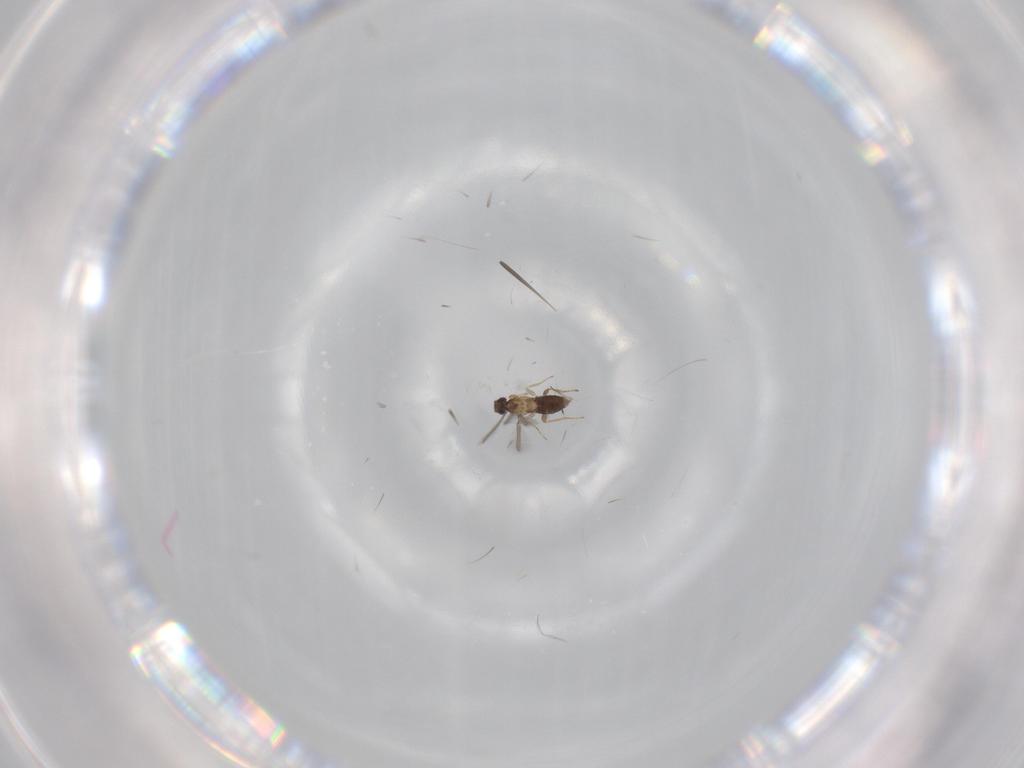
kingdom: Animalia
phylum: Arthropoda
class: Insecta
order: Hymenoptera
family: Mymaridae
